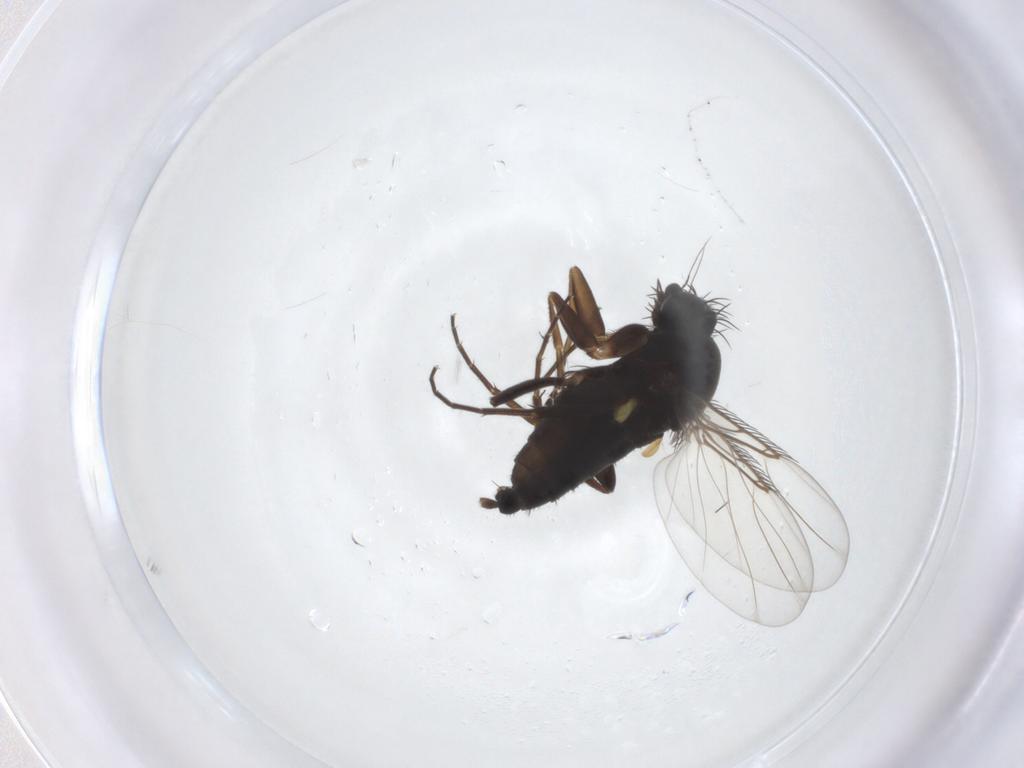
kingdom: Animalia
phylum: Arthropoda
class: Insecta
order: Diptera
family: Phoridae
